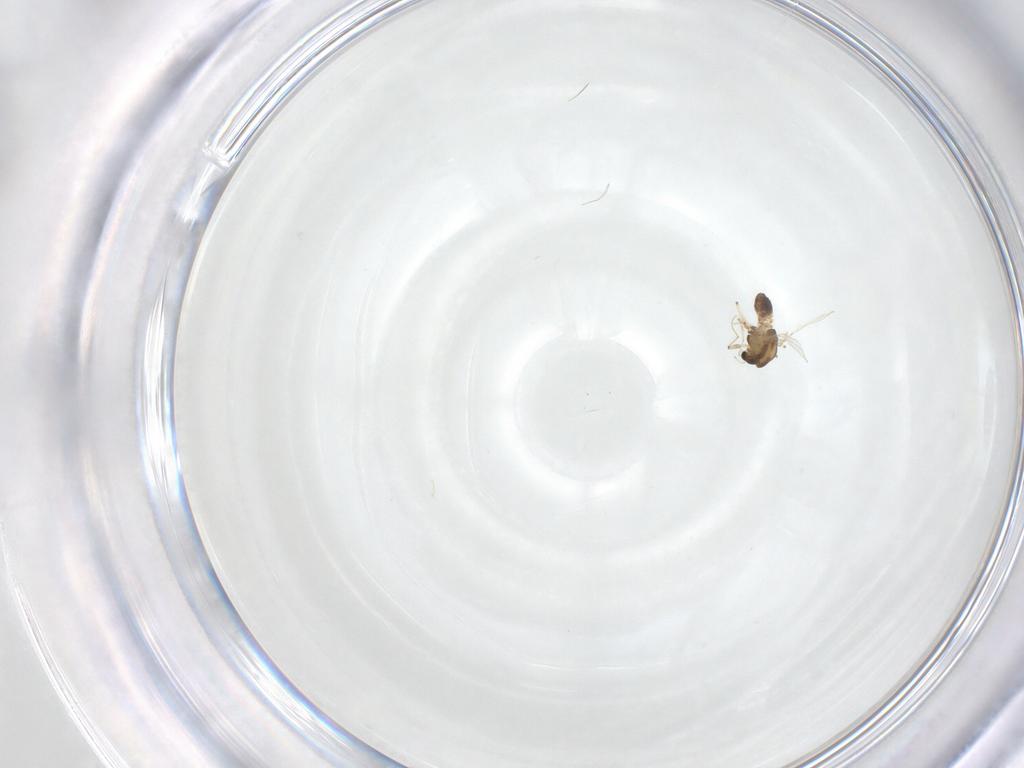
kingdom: Animalia
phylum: Arthropoda
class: Insecta
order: Diptera
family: Chironomidae
